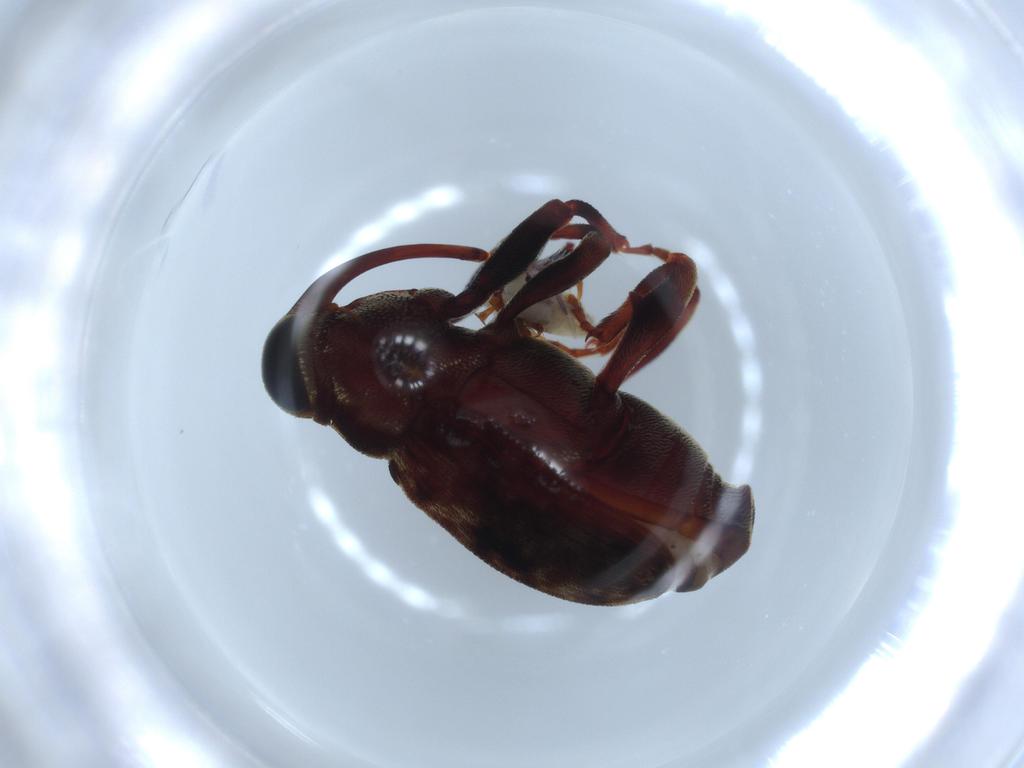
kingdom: Animalia
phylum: Arthropoda
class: Insecta
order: Coleoptera
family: Curculionidae
